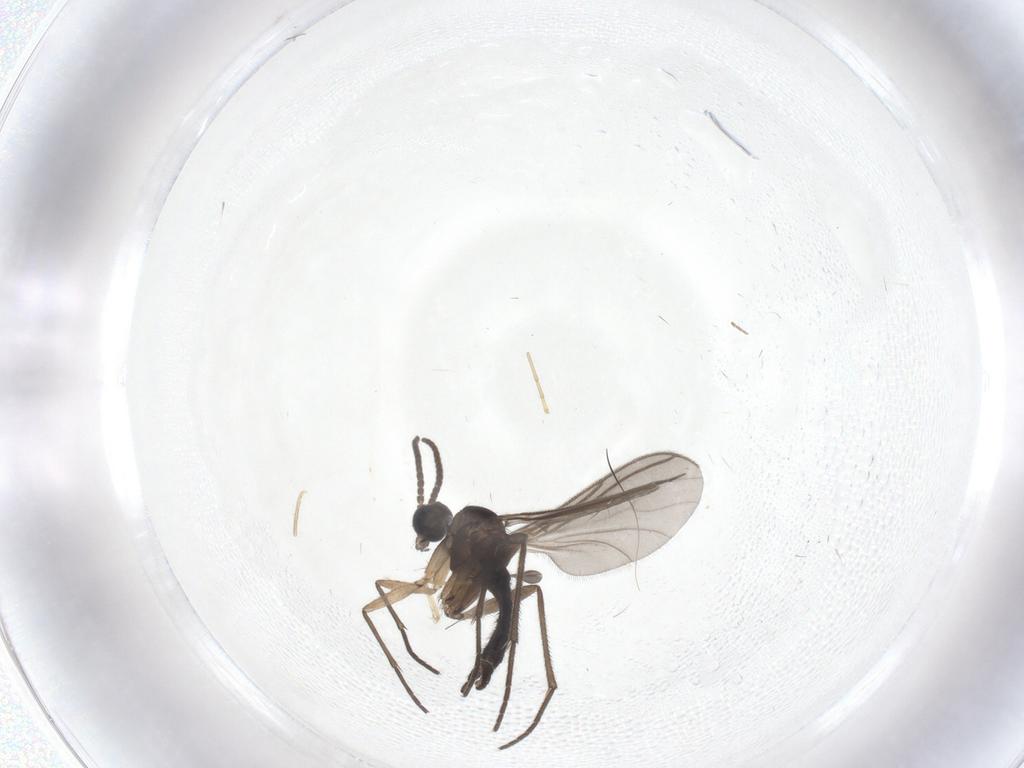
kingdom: Animalia
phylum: Arthropoda
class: Insecta
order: Diptera
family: Sciaridae
